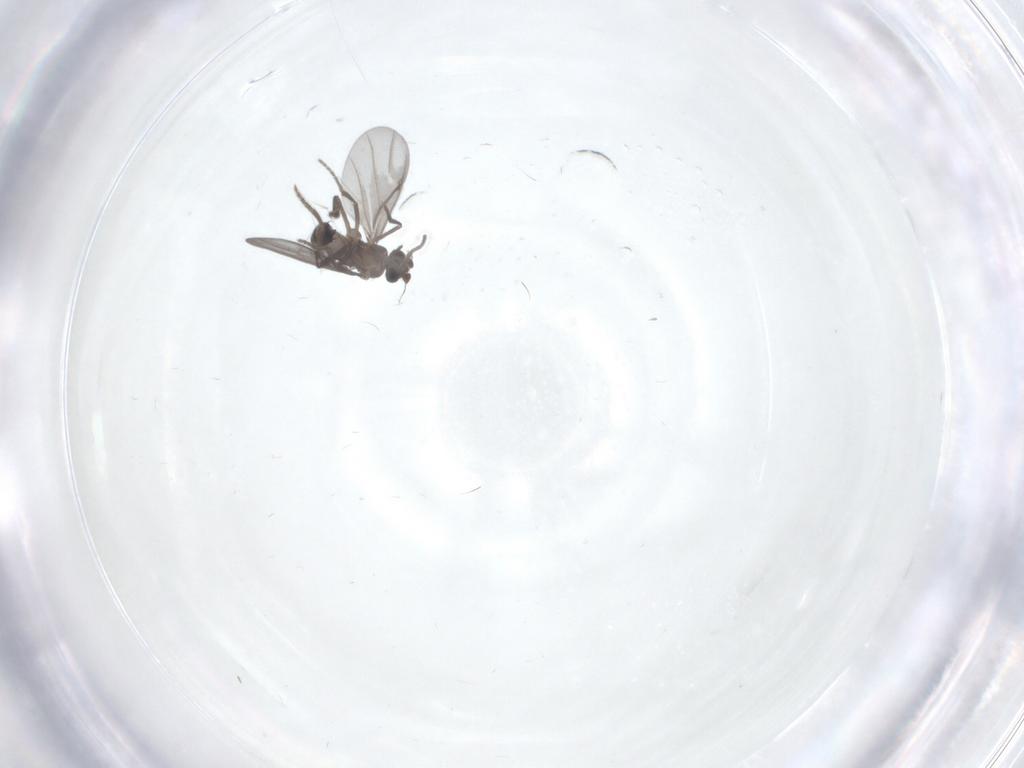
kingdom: Animalia
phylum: Arthropoda
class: Insecta
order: Diptera
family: Phoridae
